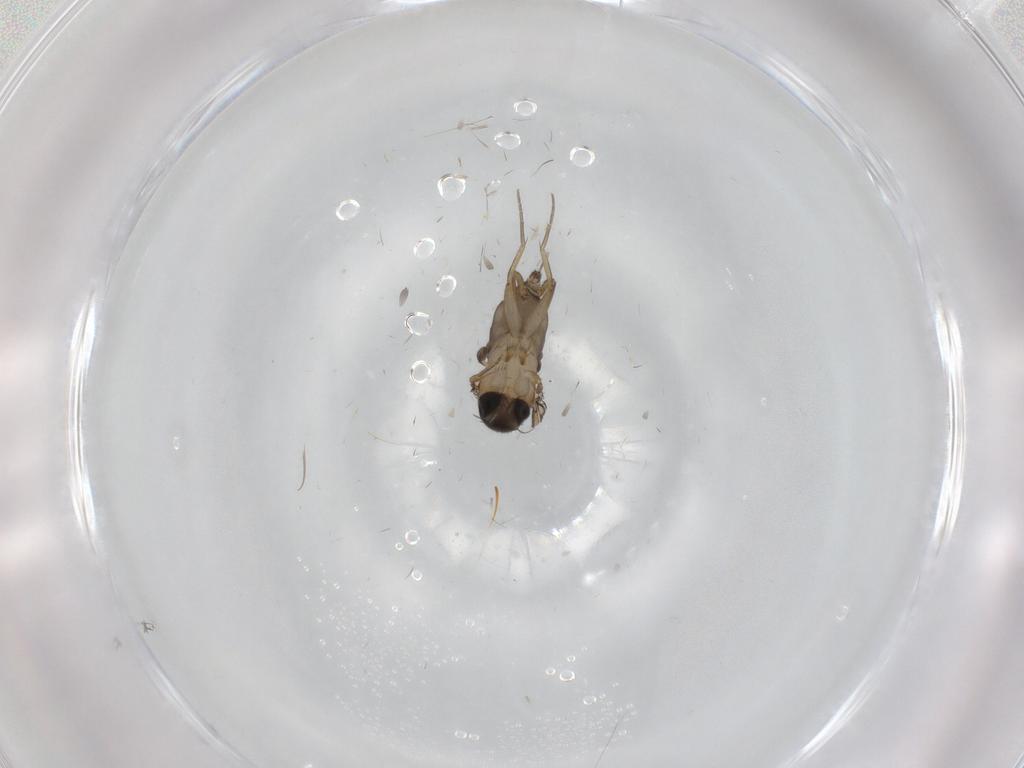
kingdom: Animalia
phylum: Arthropoda
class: Insecta
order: Diptera
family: Phoridae
